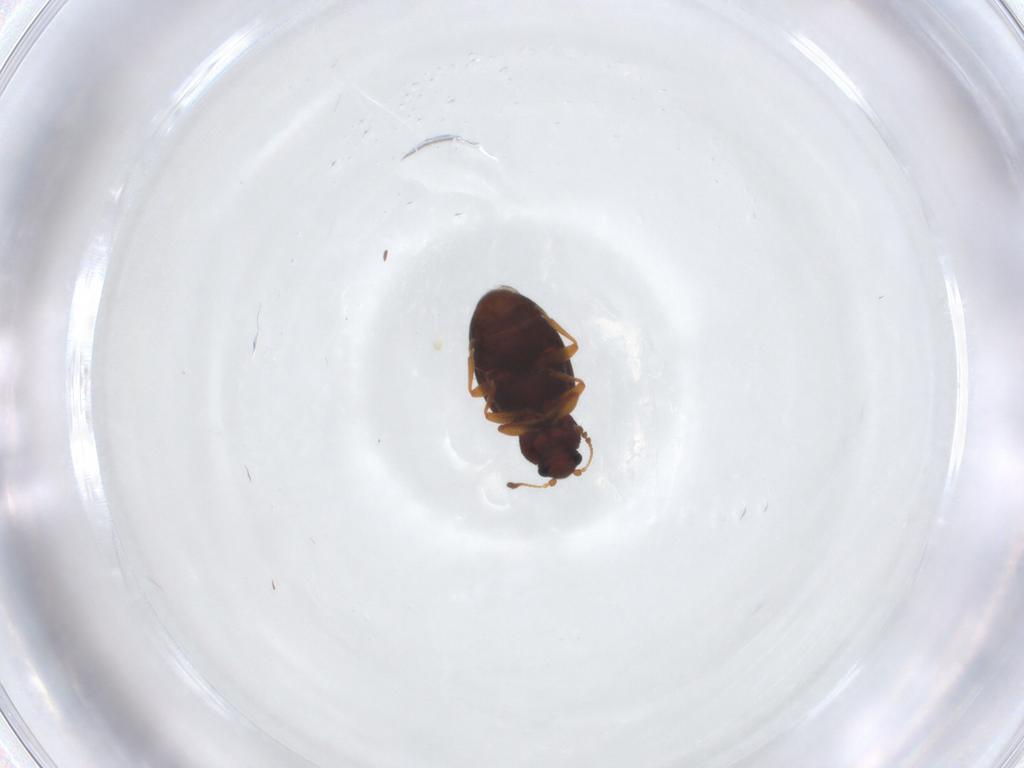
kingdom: Animalia
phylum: Arthropoda
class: Insecta
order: Coleoptera
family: Latridiidae
